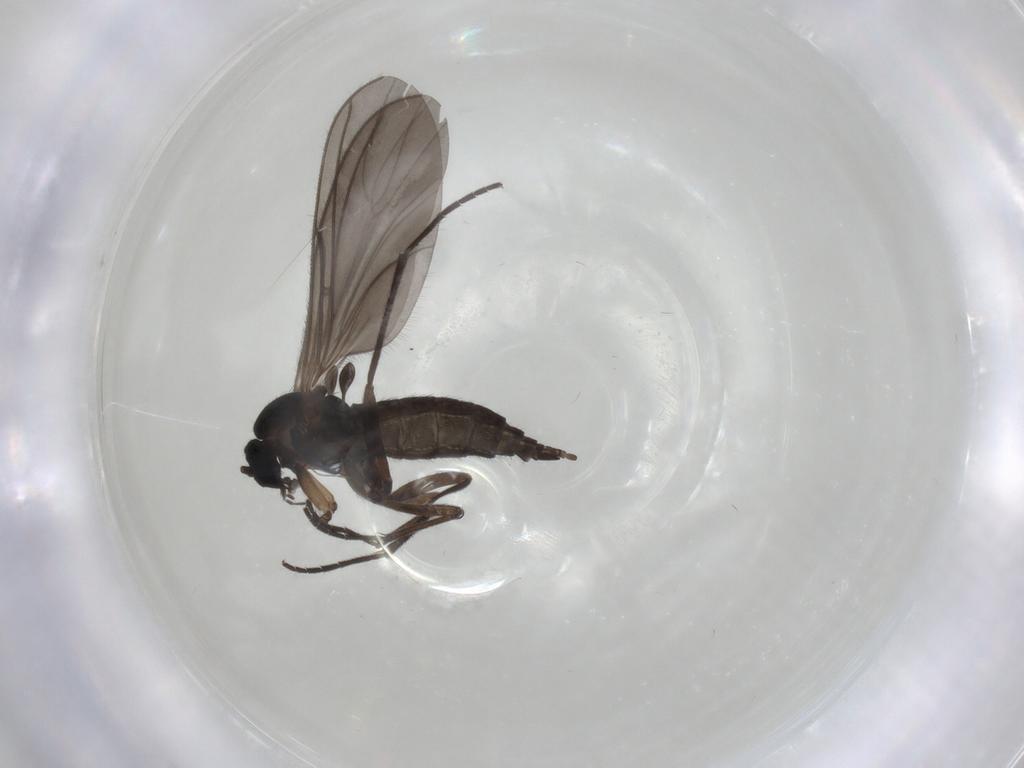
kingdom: Animalia
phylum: Arthropoda
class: Insecta
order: Diptera
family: Sciaridae
